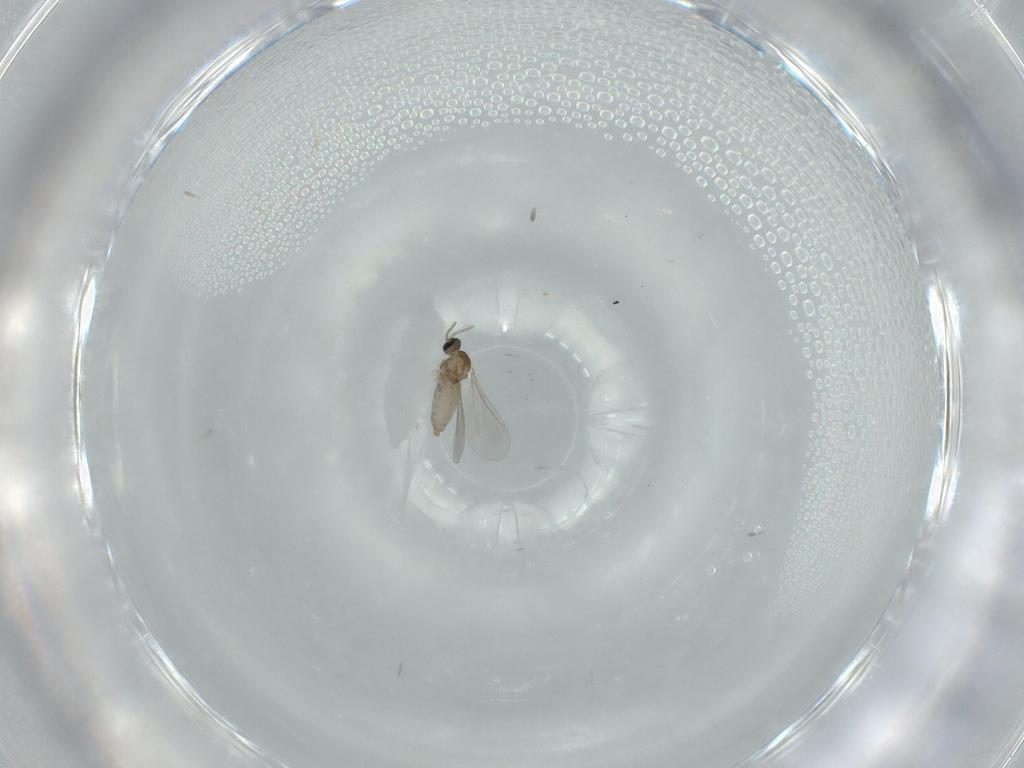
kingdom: Animalia
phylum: Arthropoda
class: Insecta
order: Diptera
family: Cecidomyiidae
